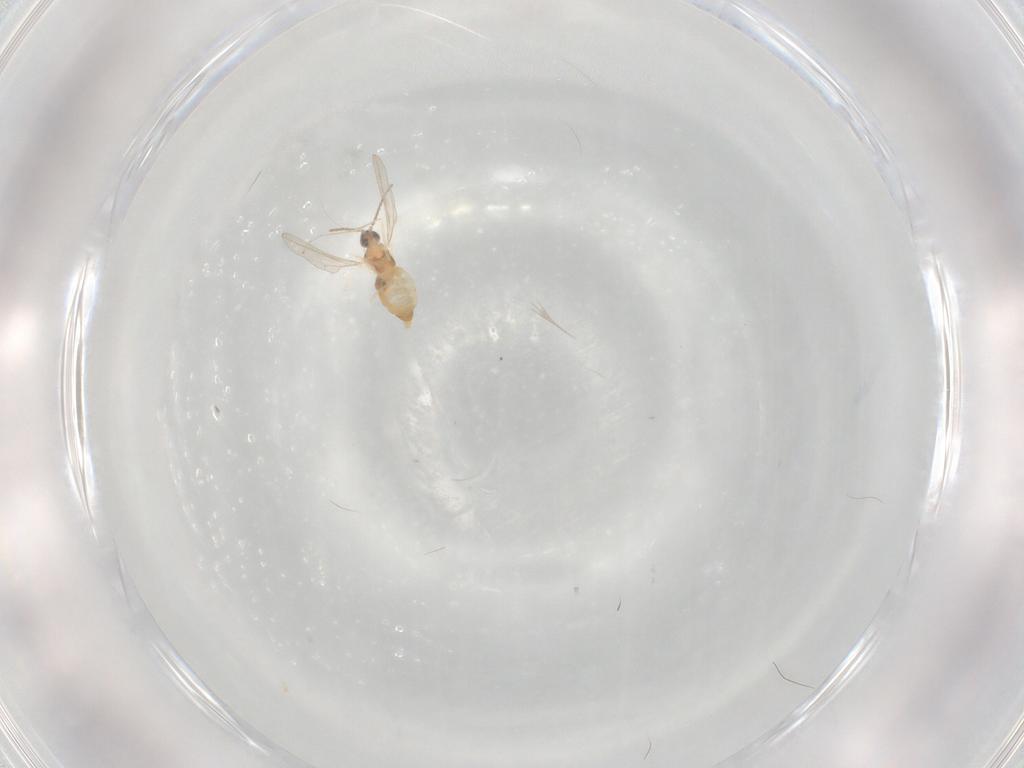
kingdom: Animalia
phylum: Arthropoda
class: Insecta
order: Diptera
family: Cecidomyiidae
